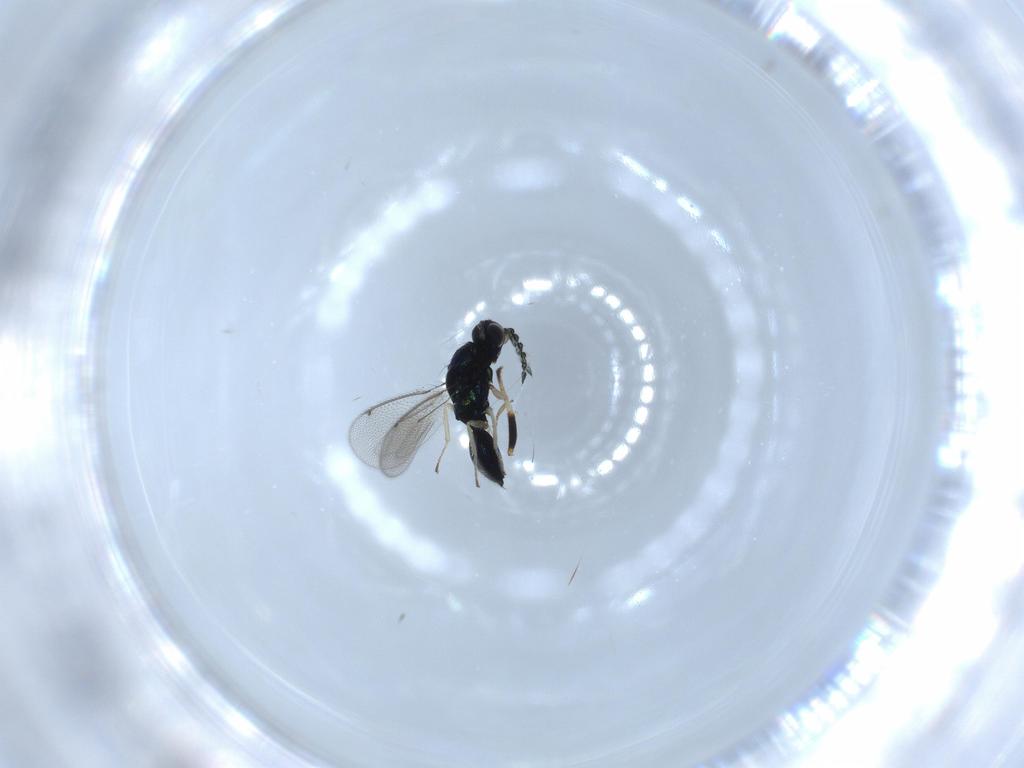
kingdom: Animalia
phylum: Arthropoda
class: Insecta
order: Hymenoptera
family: Eulophidae
